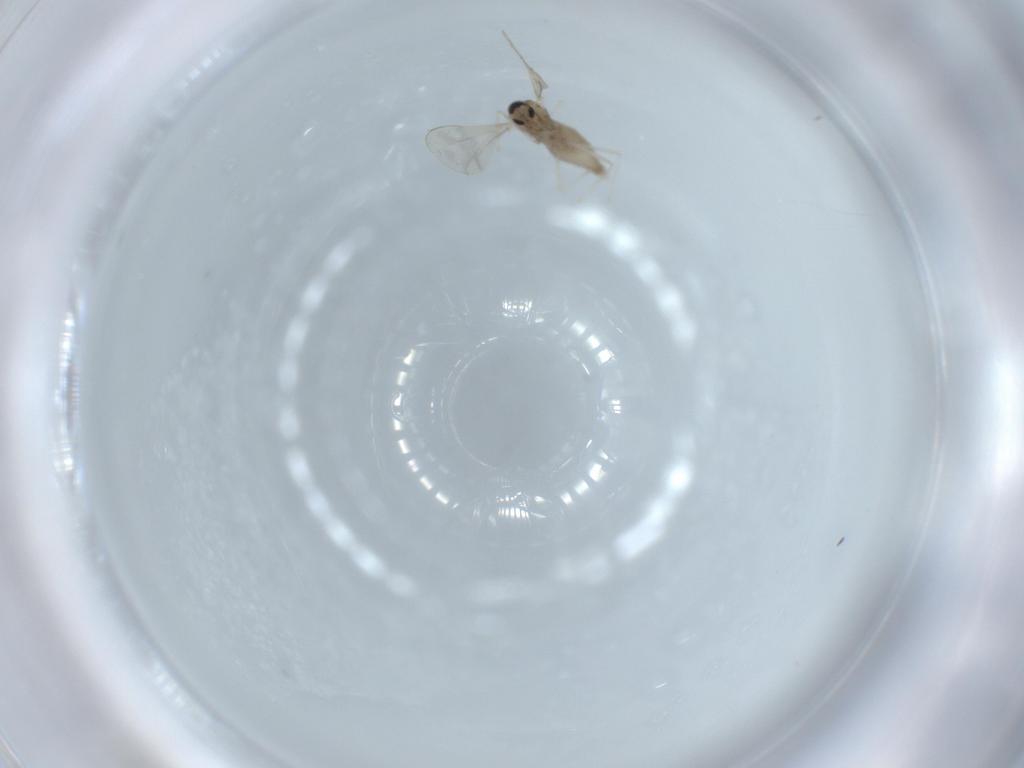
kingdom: Animalia
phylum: Arthropoda
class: Insecta
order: Diptera
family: Cecidomyiidae
